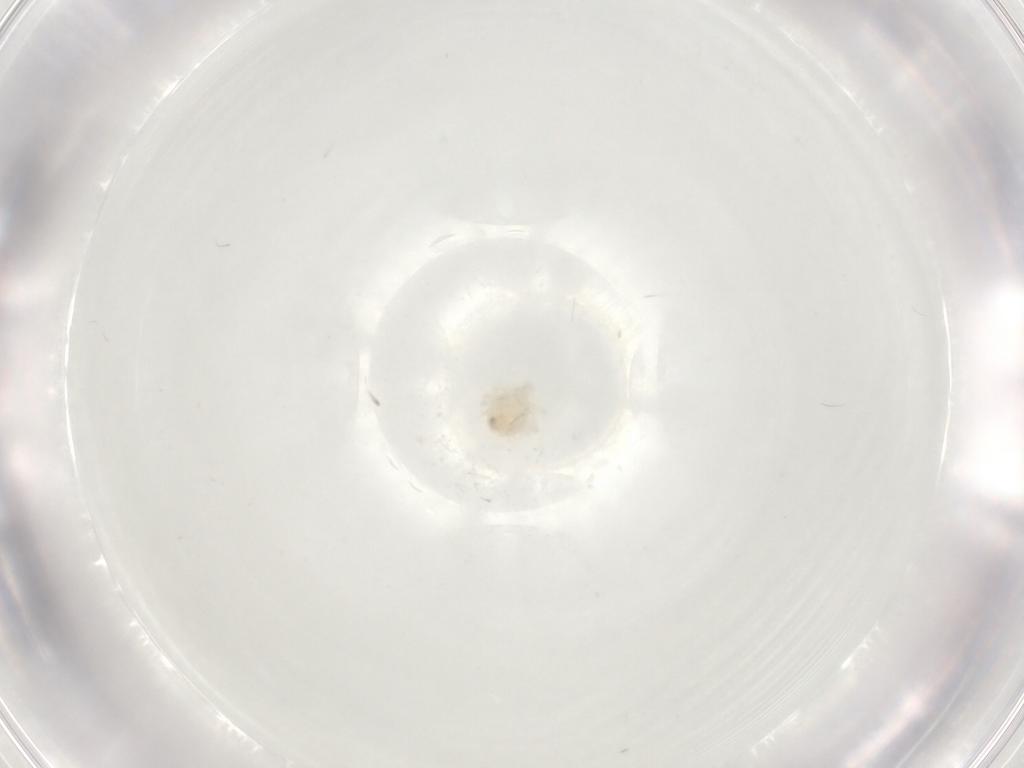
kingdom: Animalia
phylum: Arthropoda
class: Arachnida
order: Trombidiformes
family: Anystidae
